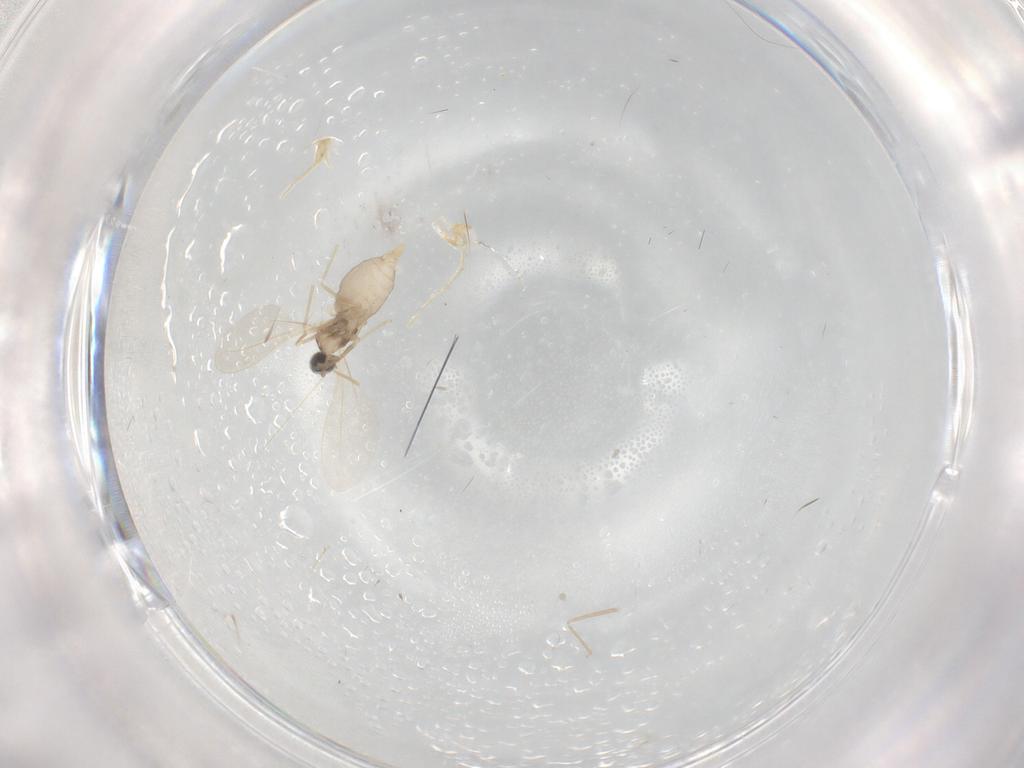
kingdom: Animalia
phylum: Arthropoda
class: Insecta
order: Diptera
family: Cecidomyiidae
